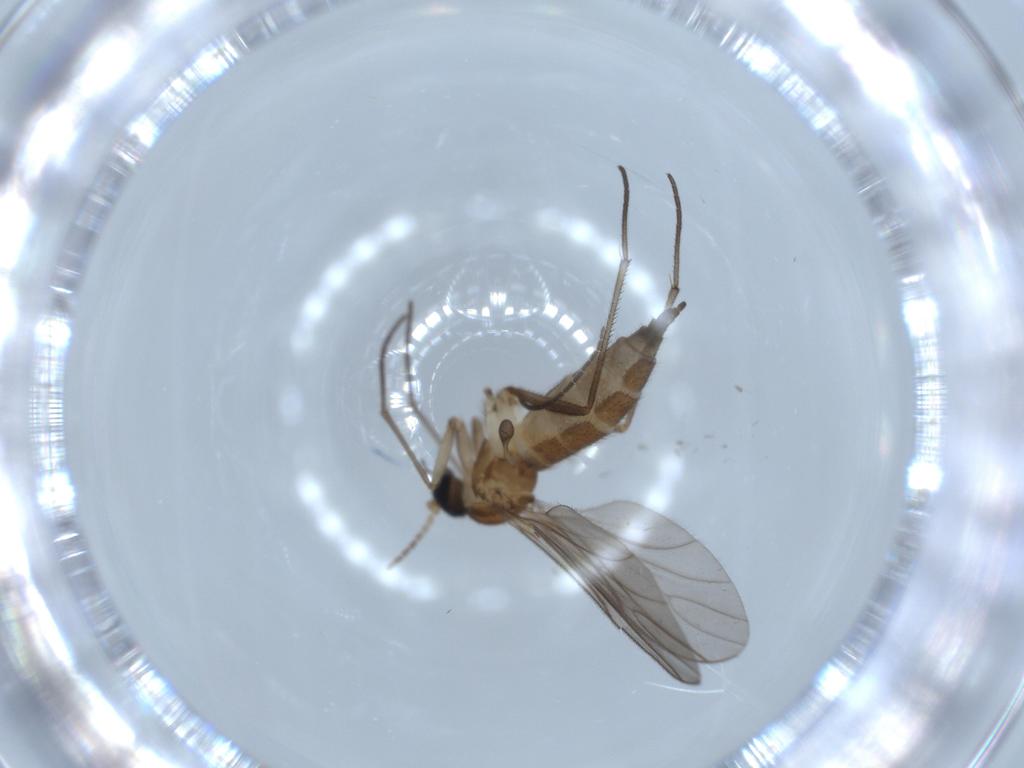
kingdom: Animalia
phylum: Arthropoda
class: Insecta
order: Diptera
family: Sciaridae
